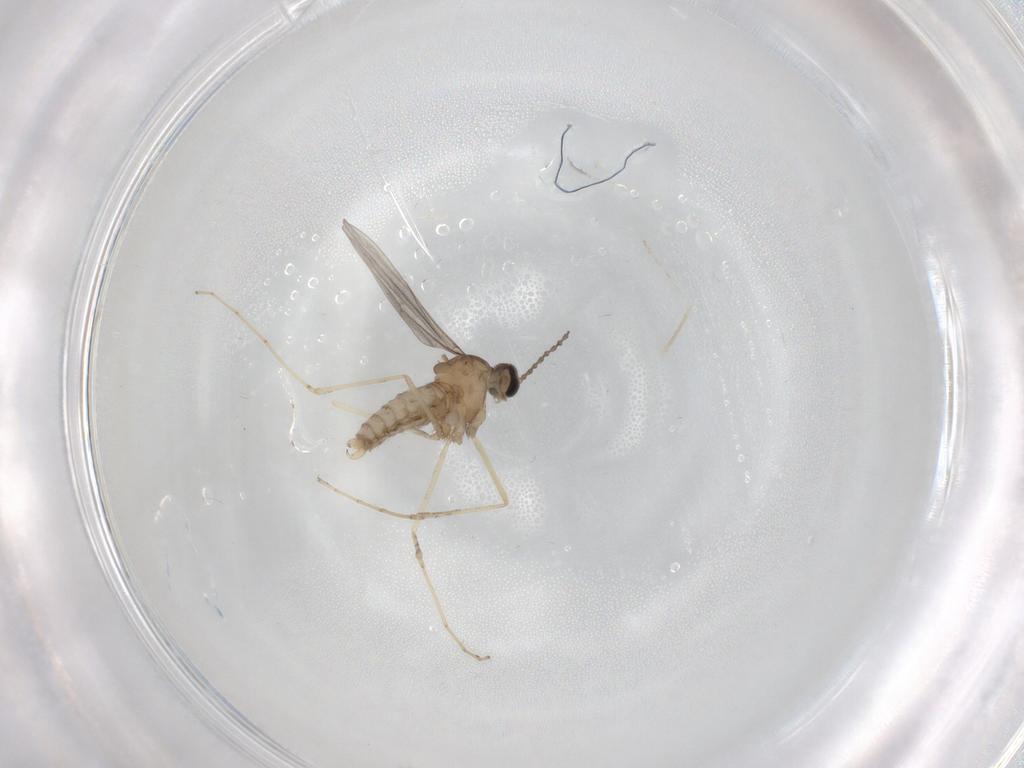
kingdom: Animalia
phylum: Arthropoda
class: Insecta
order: Diptera
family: Cecidomyiidae
